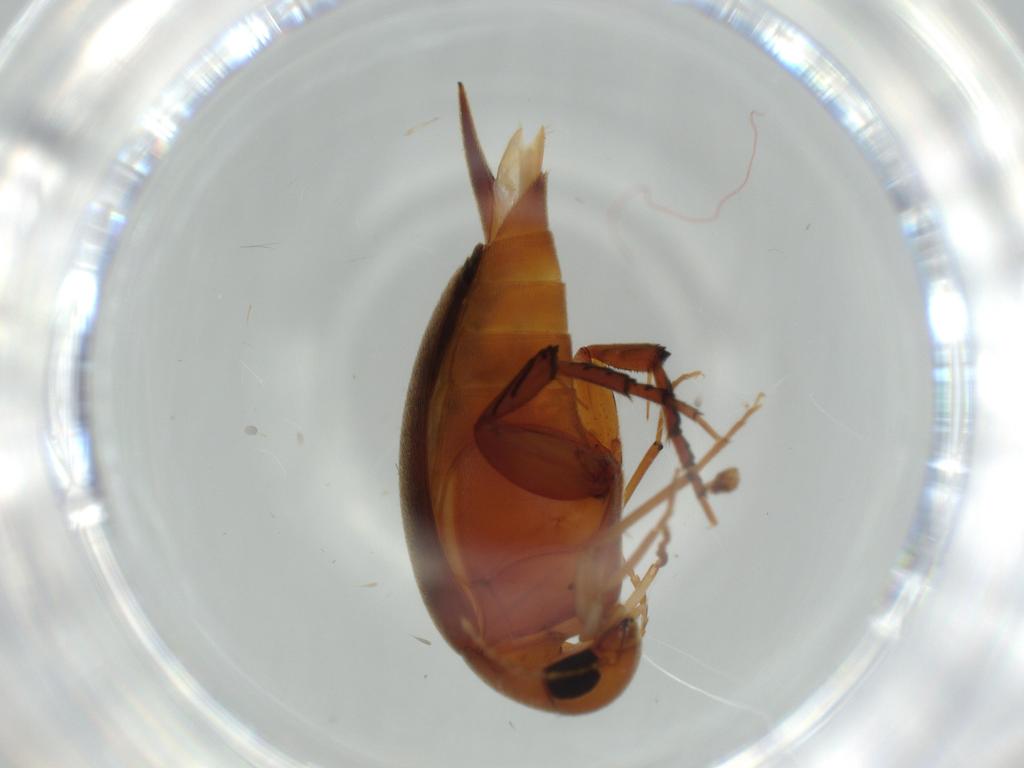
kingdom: Animalia
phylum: Arthropoda
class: Insecta
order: Coleoptera
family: Mordellidae
